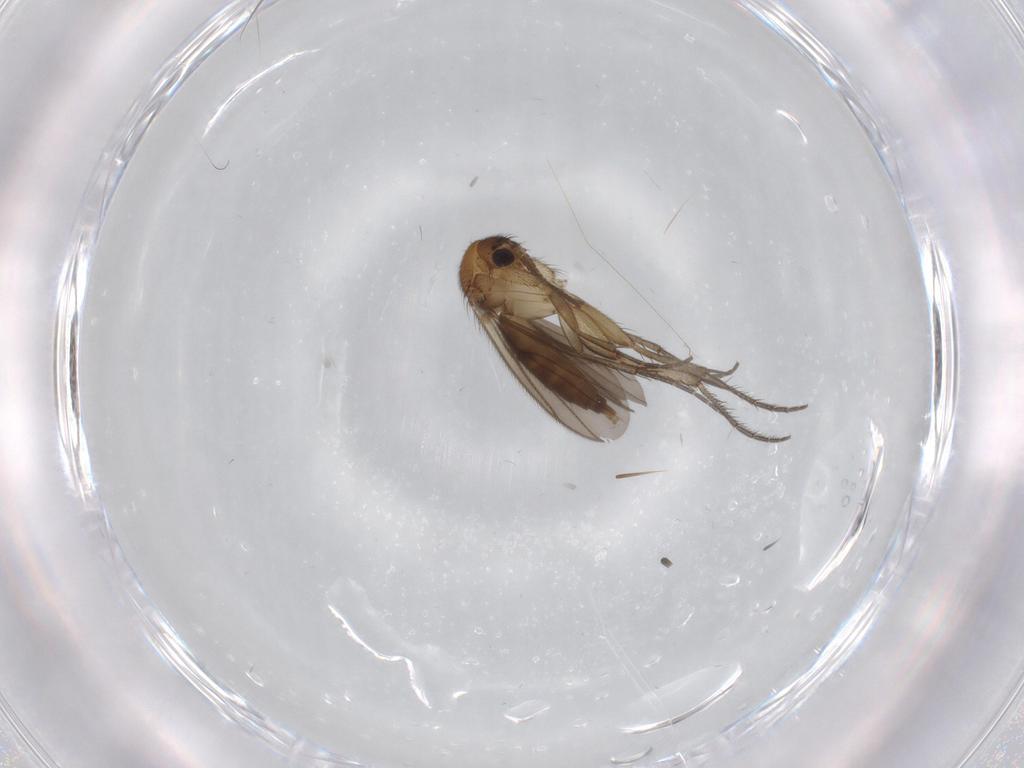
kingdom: Animalia
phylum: Arthropoda
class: Insecta
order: Diptera
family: Mycetophilidae
